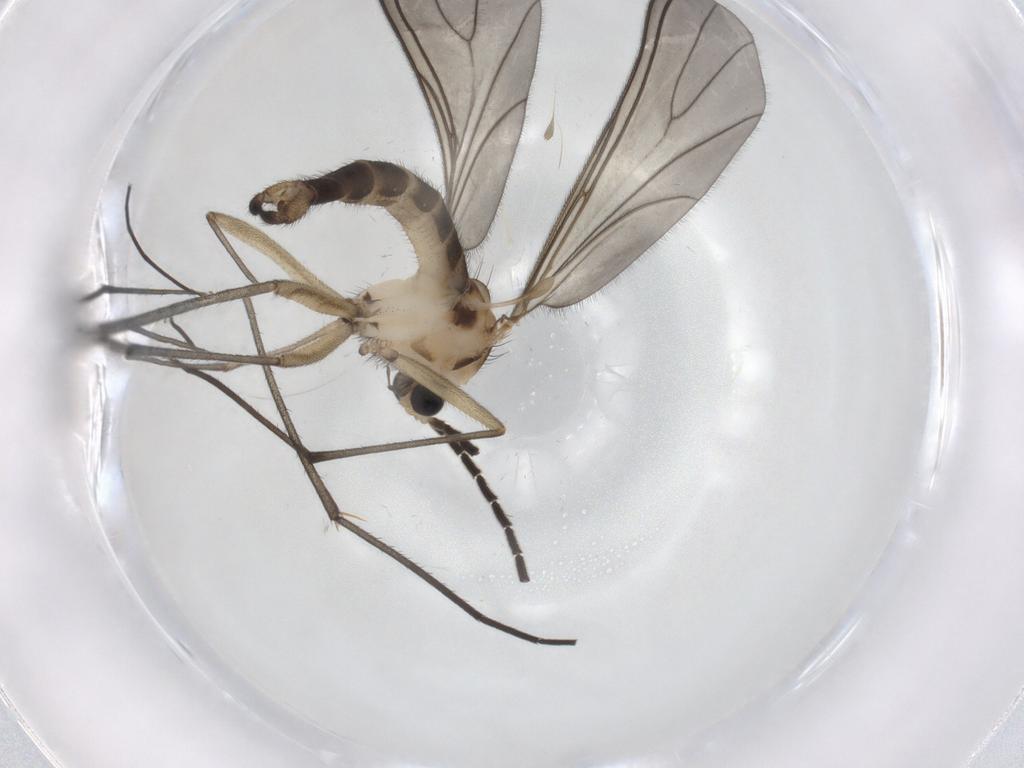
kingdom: Animalia
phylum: Arthropoda
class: Insecta
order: Diptera
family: Sciaridae
